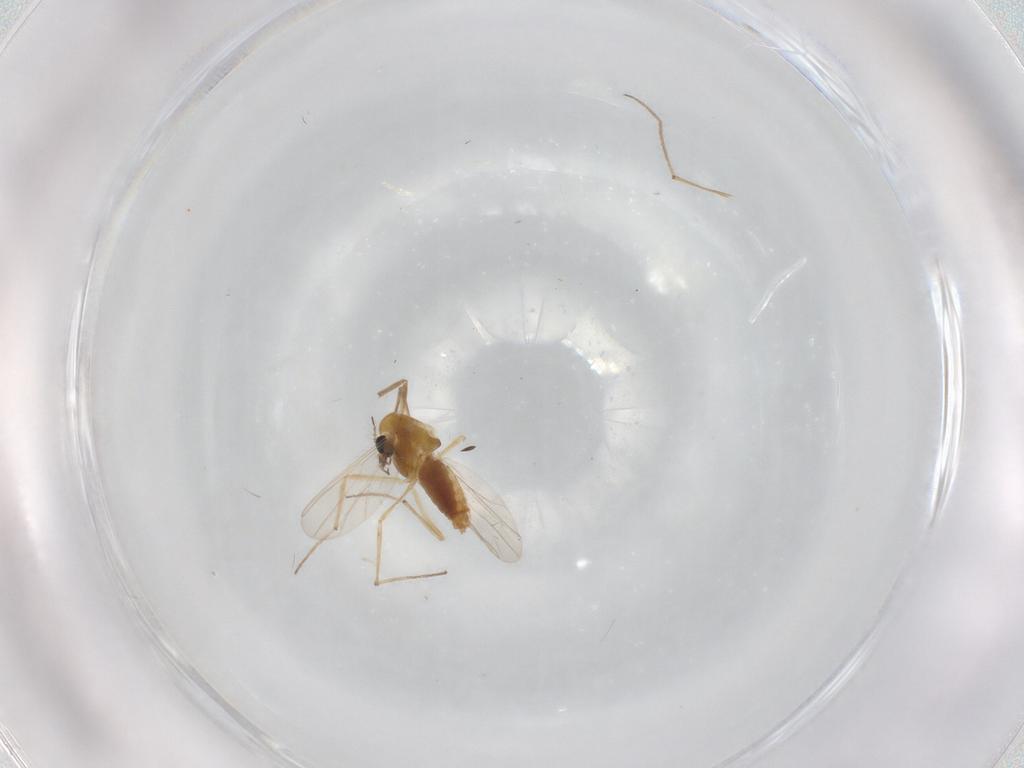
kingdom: Animalia
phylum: Arthropoda
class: Insecta
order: Diptera
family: Chironomidae
